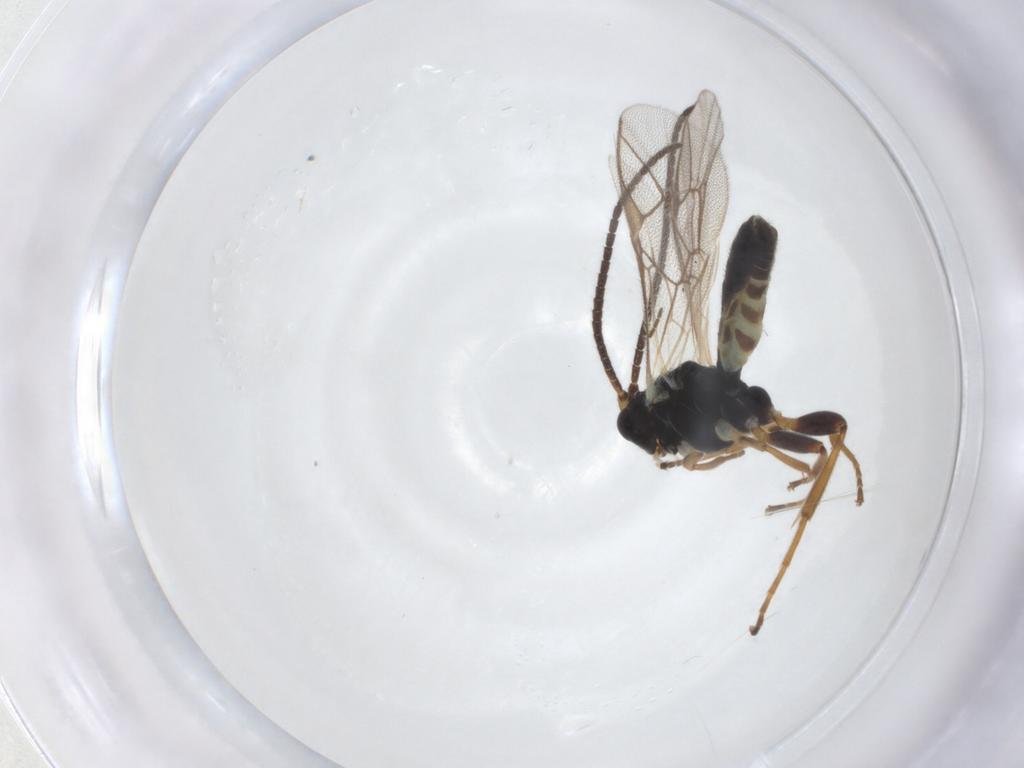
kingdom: Animalia
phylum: Arthropoda
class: Insecta
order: Hymenoptera
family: Ichneumonidae
